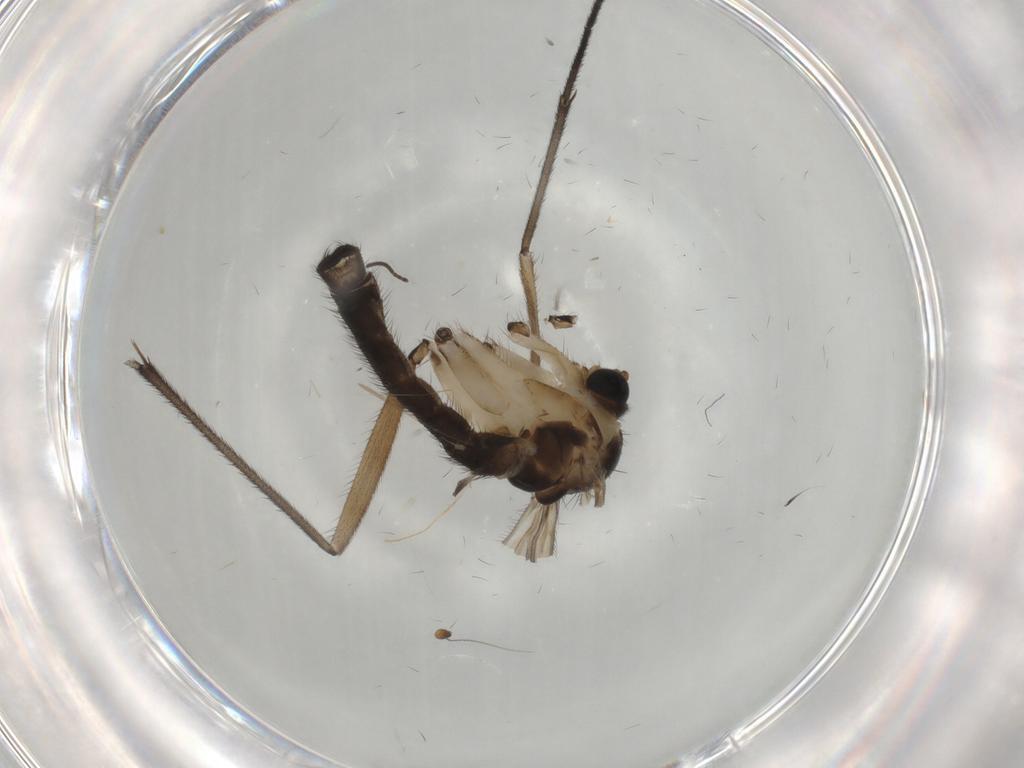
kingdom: Animalia
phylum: Arthropoda
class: Insecta
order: Diptera
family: Sciaridae
